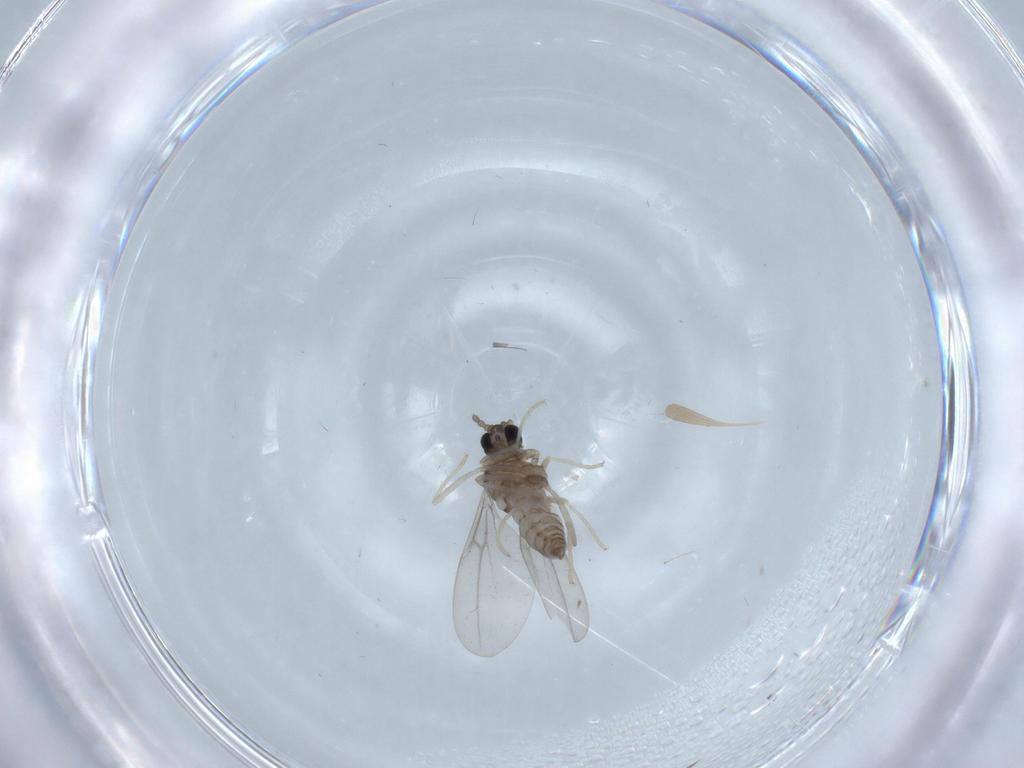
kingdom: Animalia
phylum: Arthropoda
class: Insecta
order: Diptera
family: Cecidomyiidae
